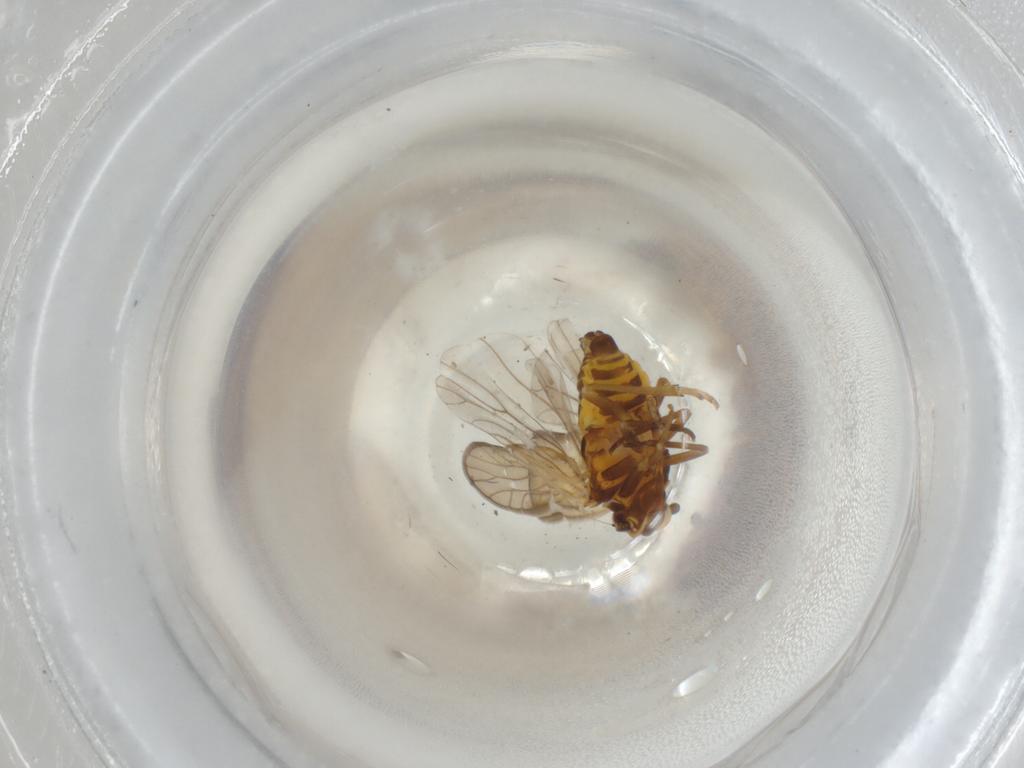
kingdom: Animalia
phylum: Arthropoda
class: Insecta
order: Hemiptera
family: Meenoplidae
